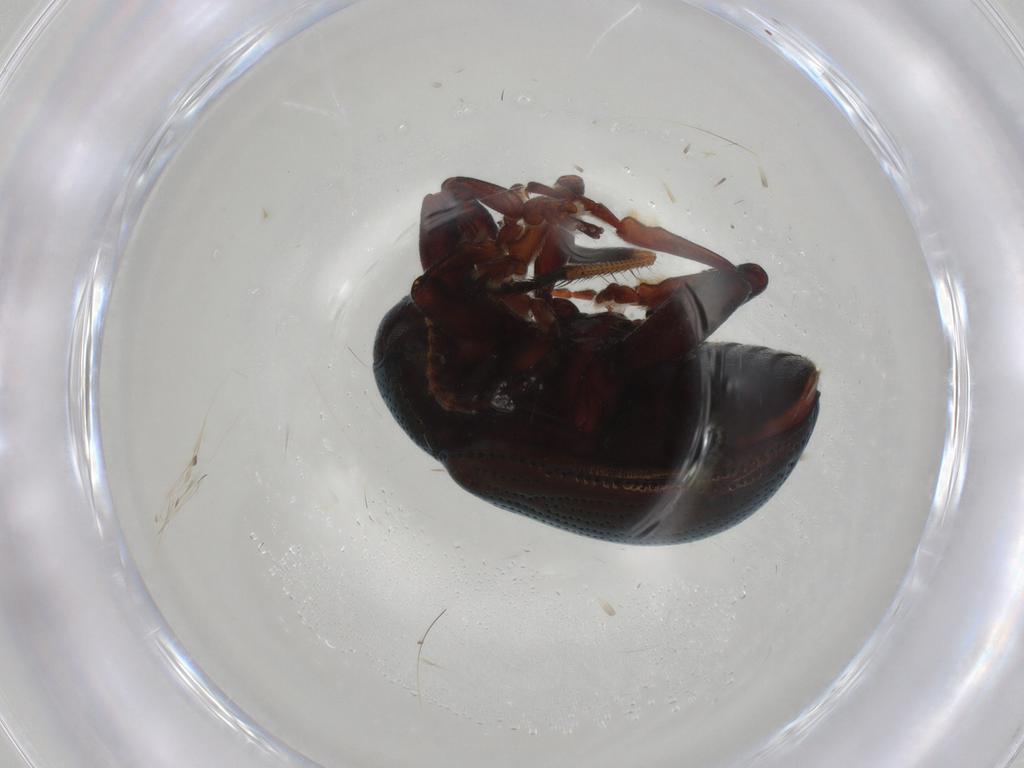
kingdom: Animalia
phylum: Arthropoda
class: Insecta
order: Coleoptera
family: Chrysomelidae
